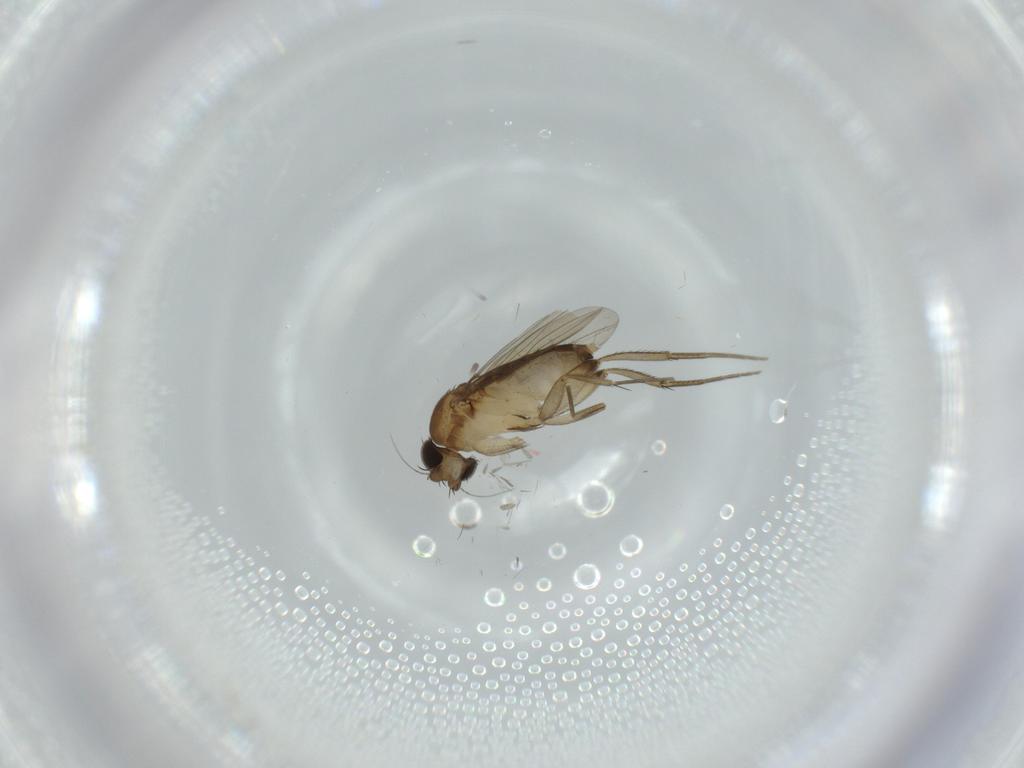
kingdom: Animalia
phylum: Arthropoda
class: Insecta
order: Diptera
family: Phoridae
